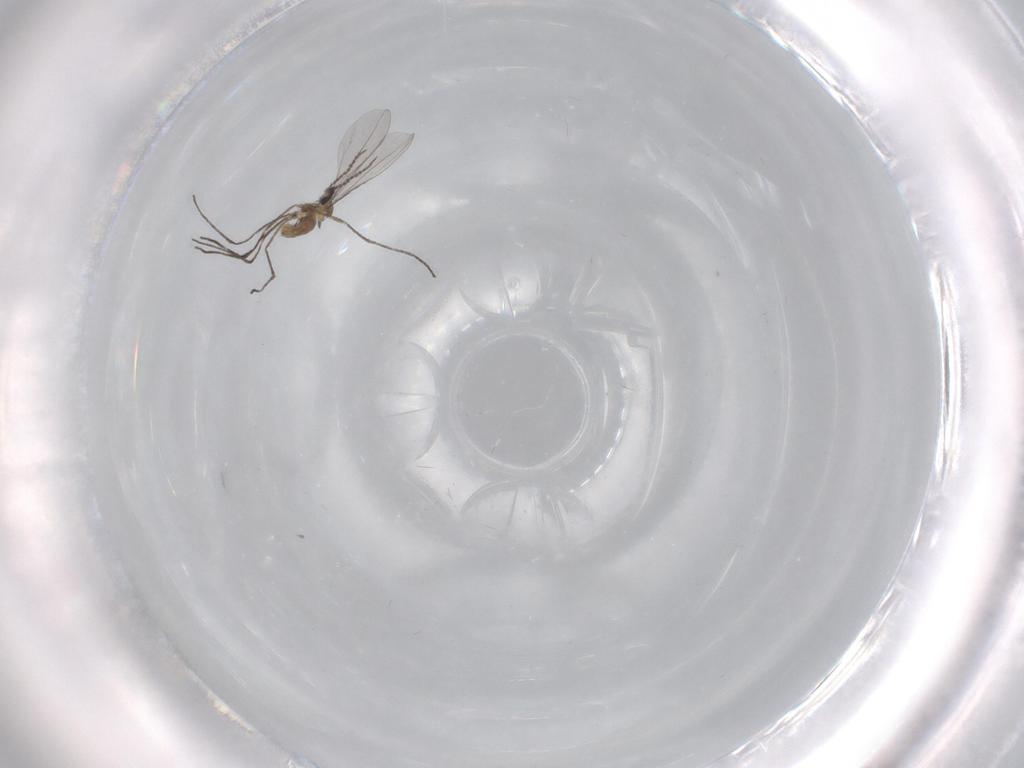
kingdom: Animalia
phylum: Arthropoda
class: Insecta
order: Diptera
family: Cecidomyiidae
